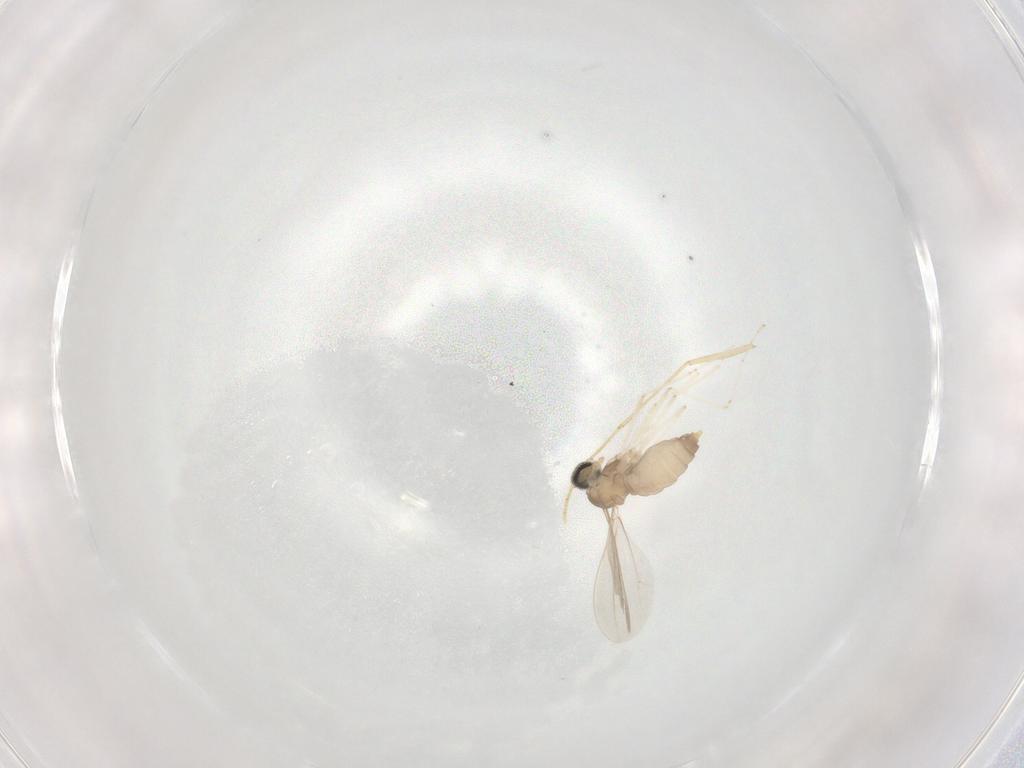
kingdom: Animalia
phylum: Arthropoda
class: Insecta
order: Diptera
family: Psychodidae
